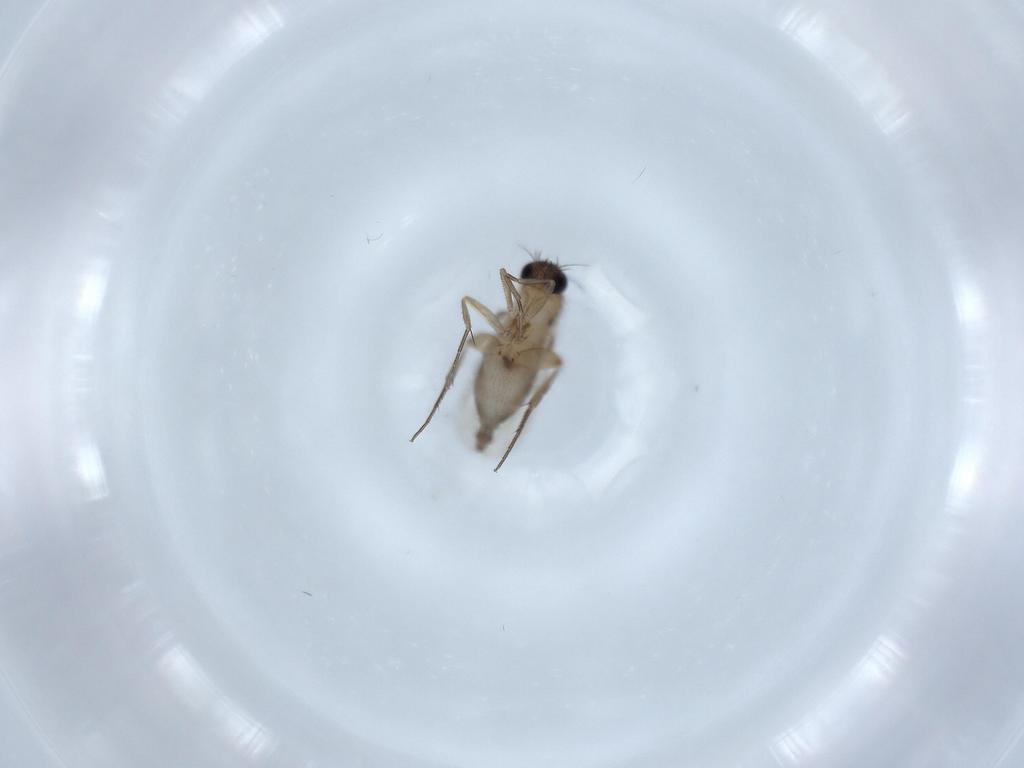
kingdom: Animalia
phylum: Arthropoda
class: Insecta
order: Diptera
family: Phoridae
